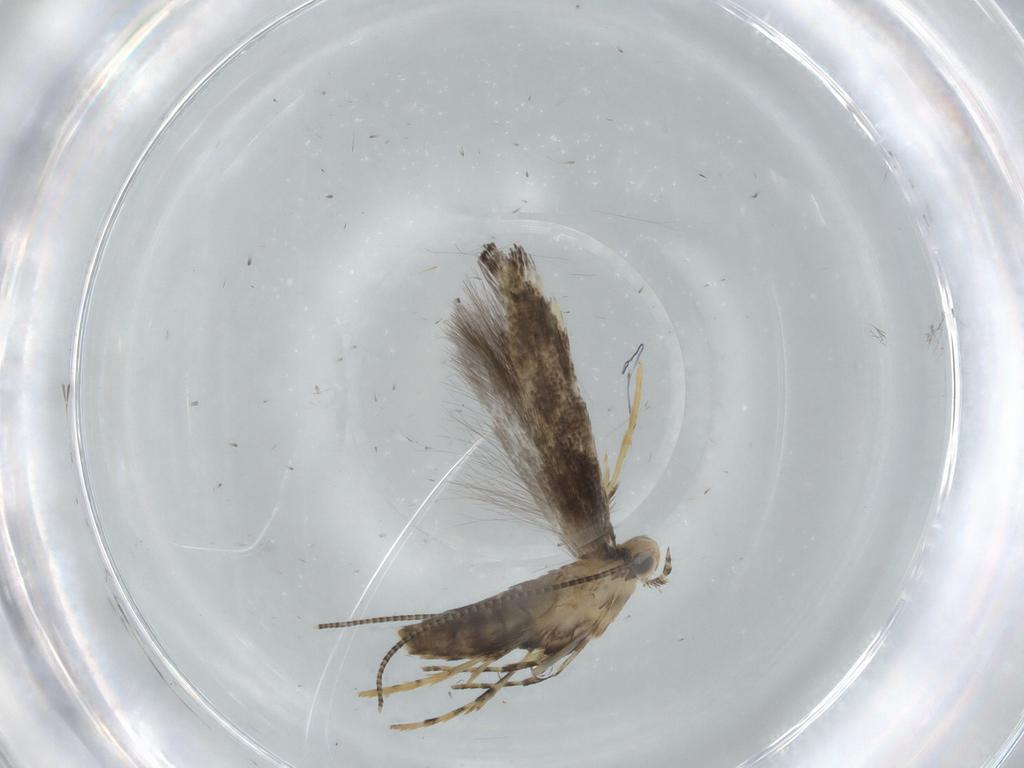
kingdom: Animalia
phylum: Arthropoda
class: Insecta
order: Lepidoptera
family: Gracillariidae
